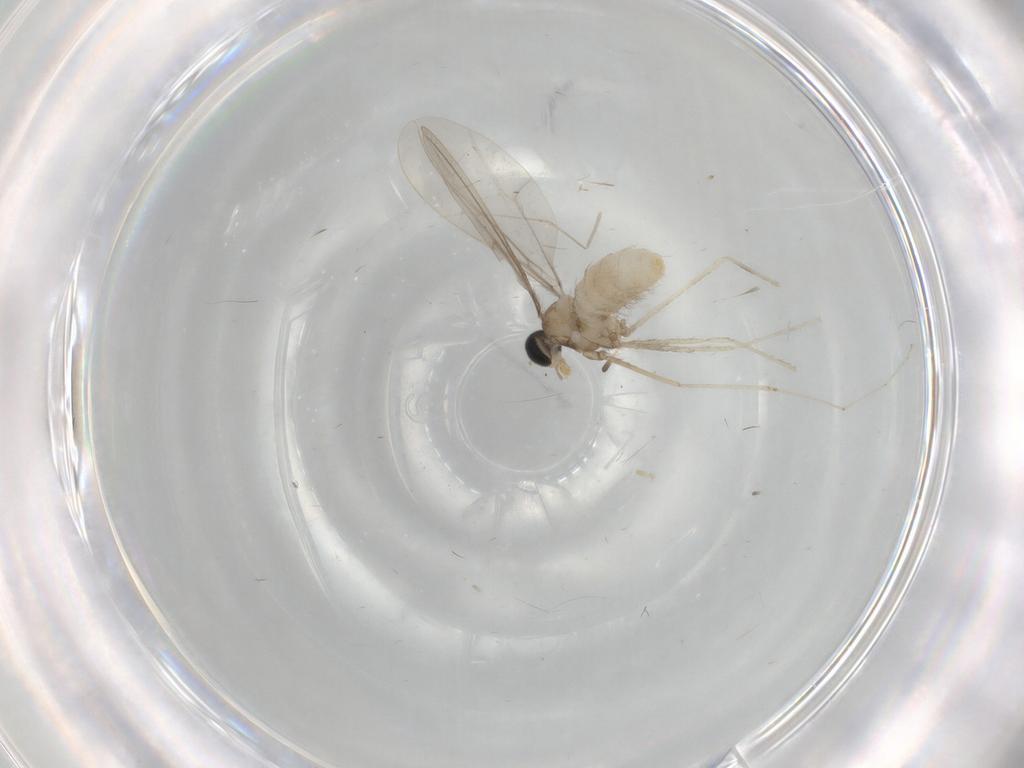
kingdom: Animalia
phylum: Arthropoda
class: Insecta
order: Diptera
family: Cecidomyiidae
